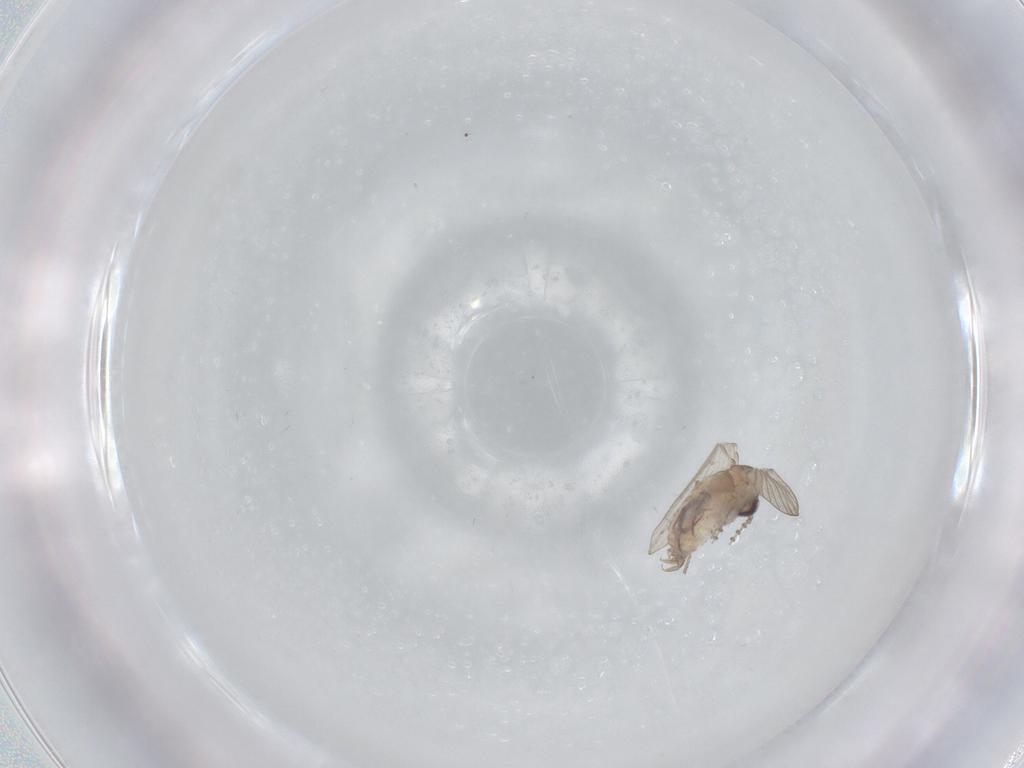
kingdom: Animalia
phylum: Arthropoda
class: Insecta
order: Diptera
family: Psychodidae
